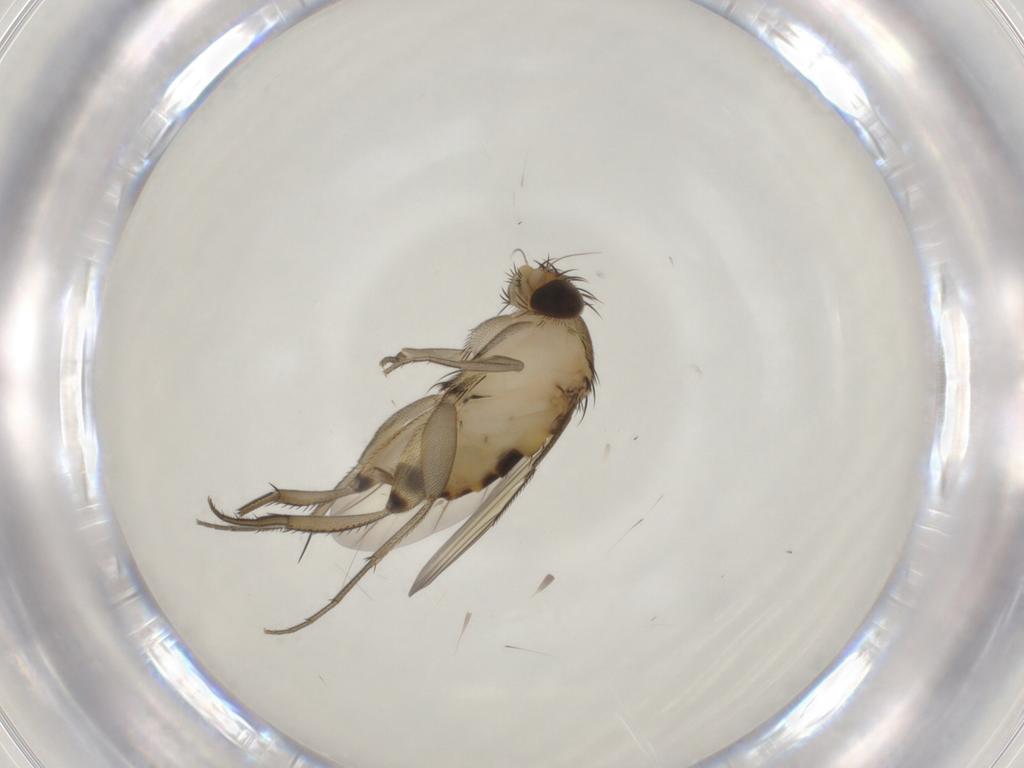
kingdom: Animalia
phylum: Arthropoda
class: Insecta
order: Diptera
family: Phoridae
